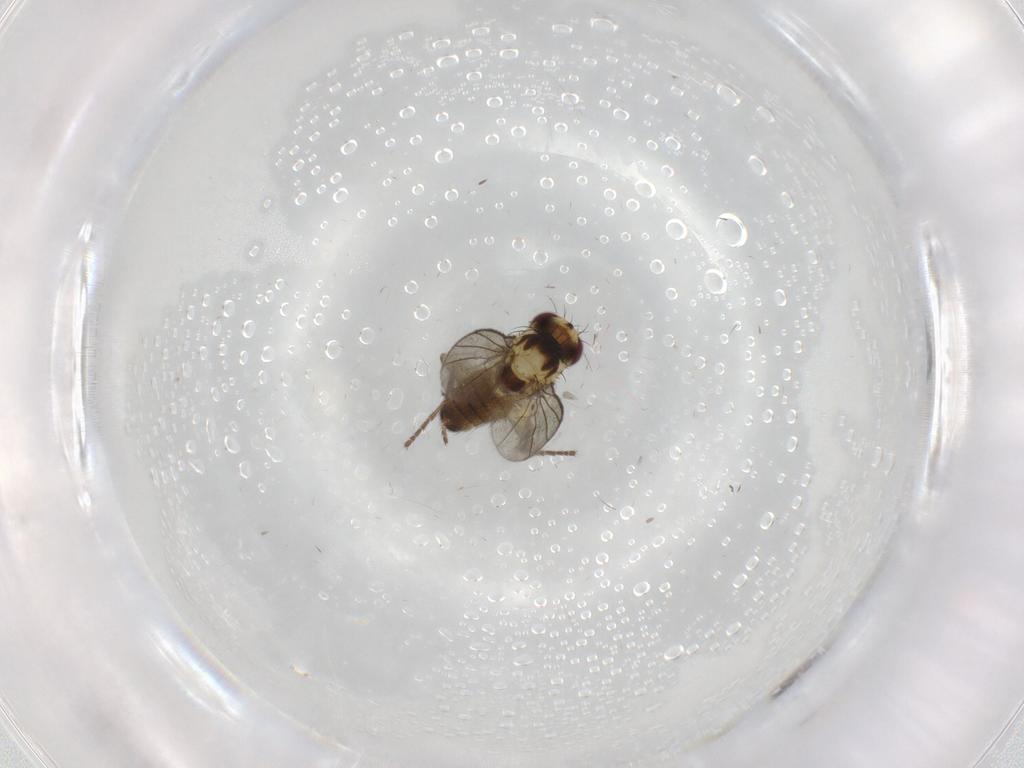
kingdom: Animalia
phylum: Arthropoda
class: Insecta
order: Diptera
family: Agromyzidae
